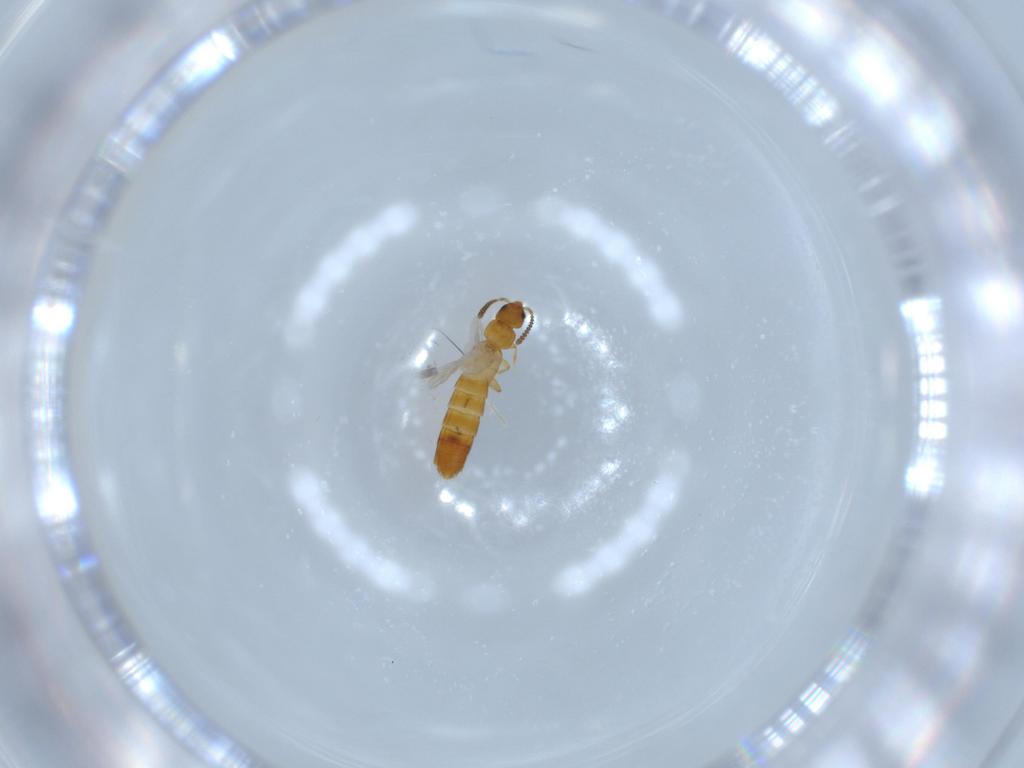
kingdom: Animalia
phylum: Arthropoda
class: Insecta
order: Coleoptera
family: Staphylinidae
